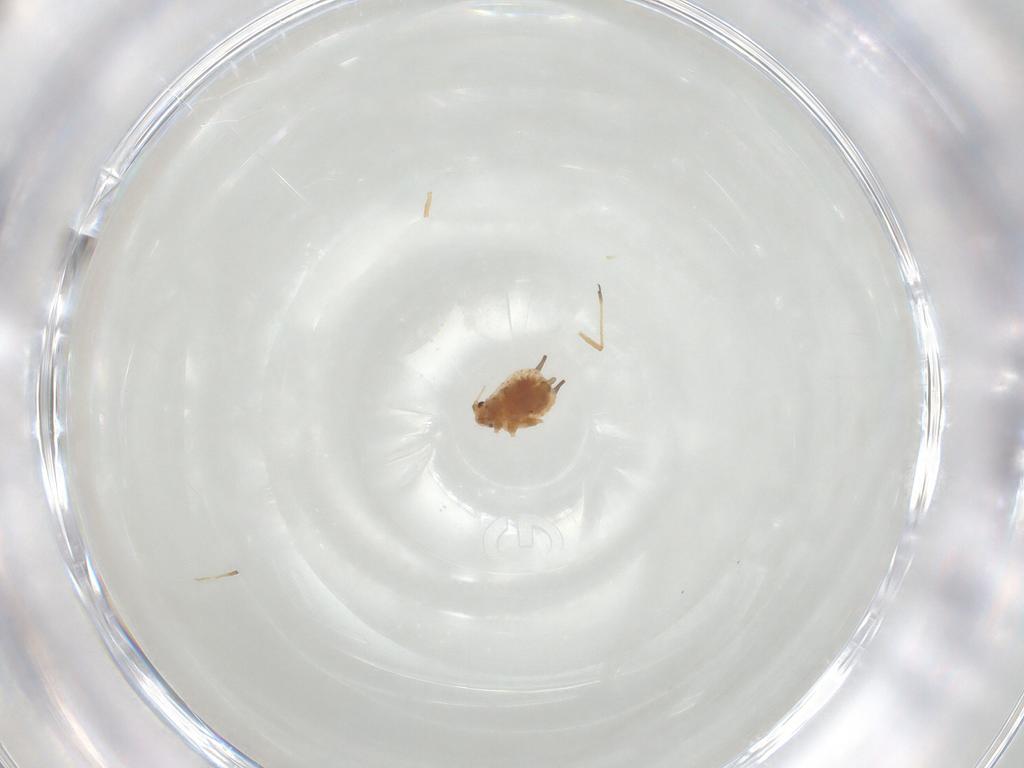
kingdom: Animalia
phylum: Arthropoda
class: Insecta
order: Hemiptera
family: Aphididae
